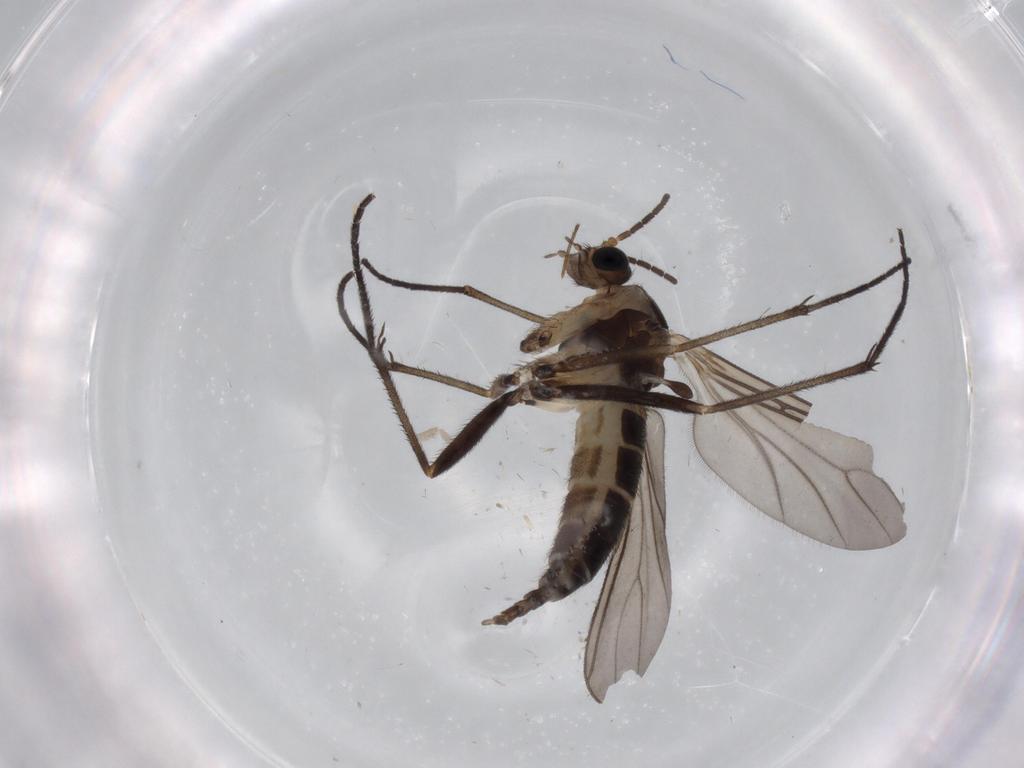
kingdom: Animalia
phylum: Arthropoda
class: Insecta
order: Diptera
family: Sciaridae
